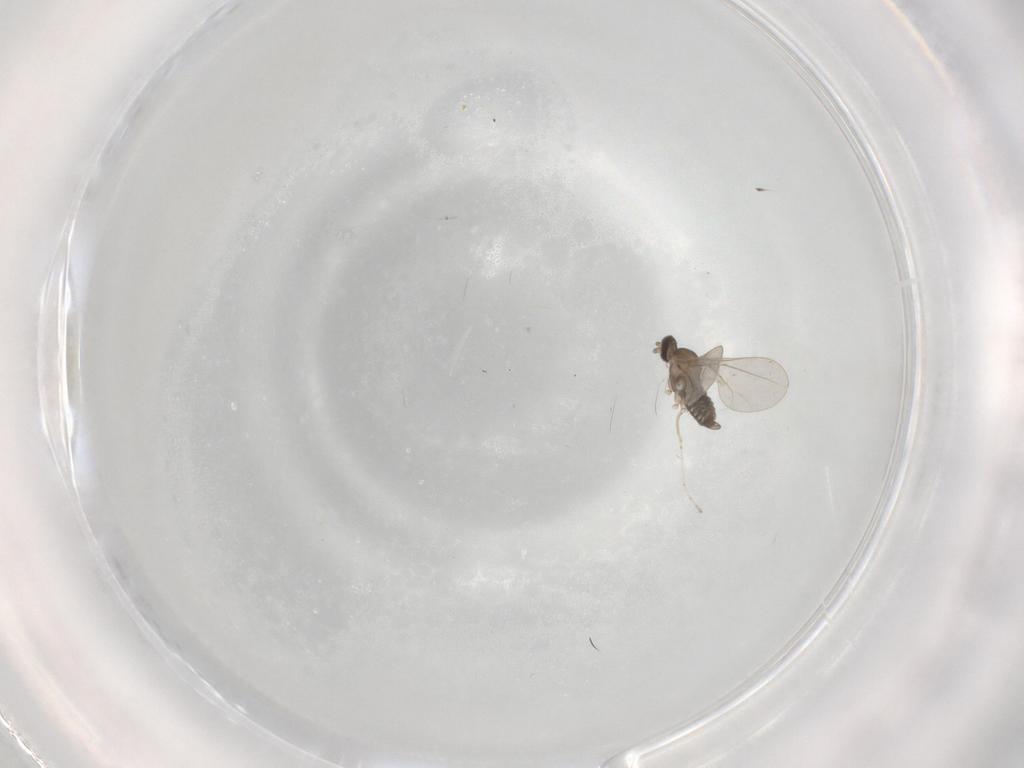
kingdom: Animalia
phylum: Arthropoda
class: Insecta
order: Diptera
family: Cecidomyiidae
